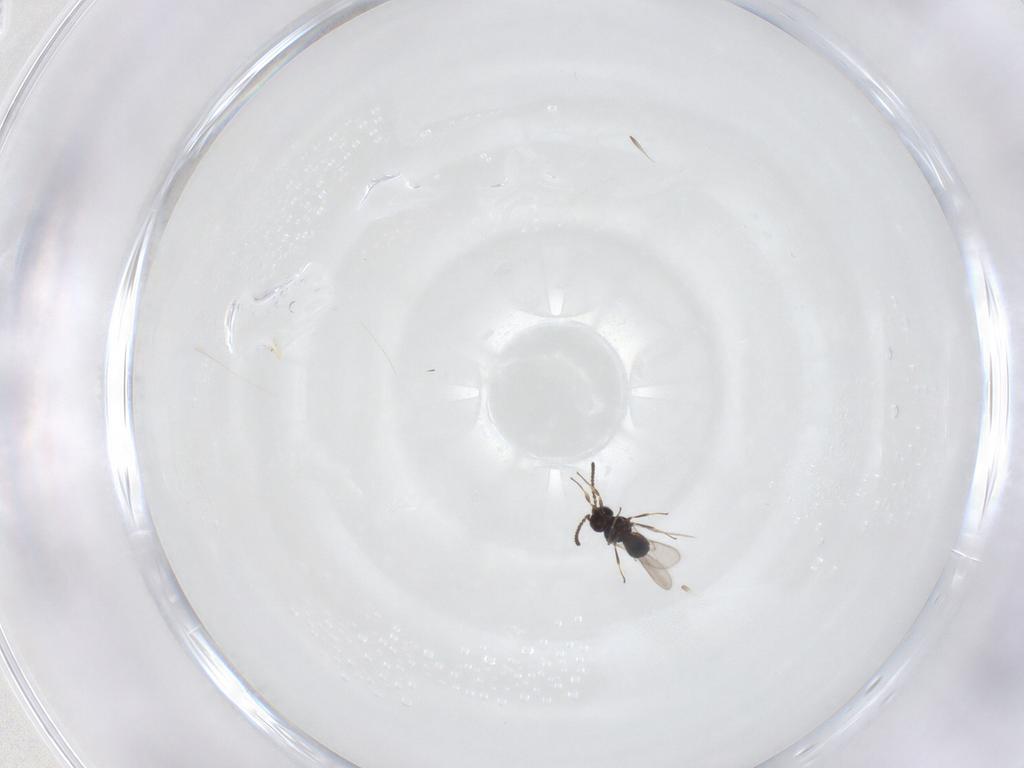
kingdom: Animalia
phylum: Arthropoda
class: Insecta
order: Hymenoptera
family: Scelionidae
